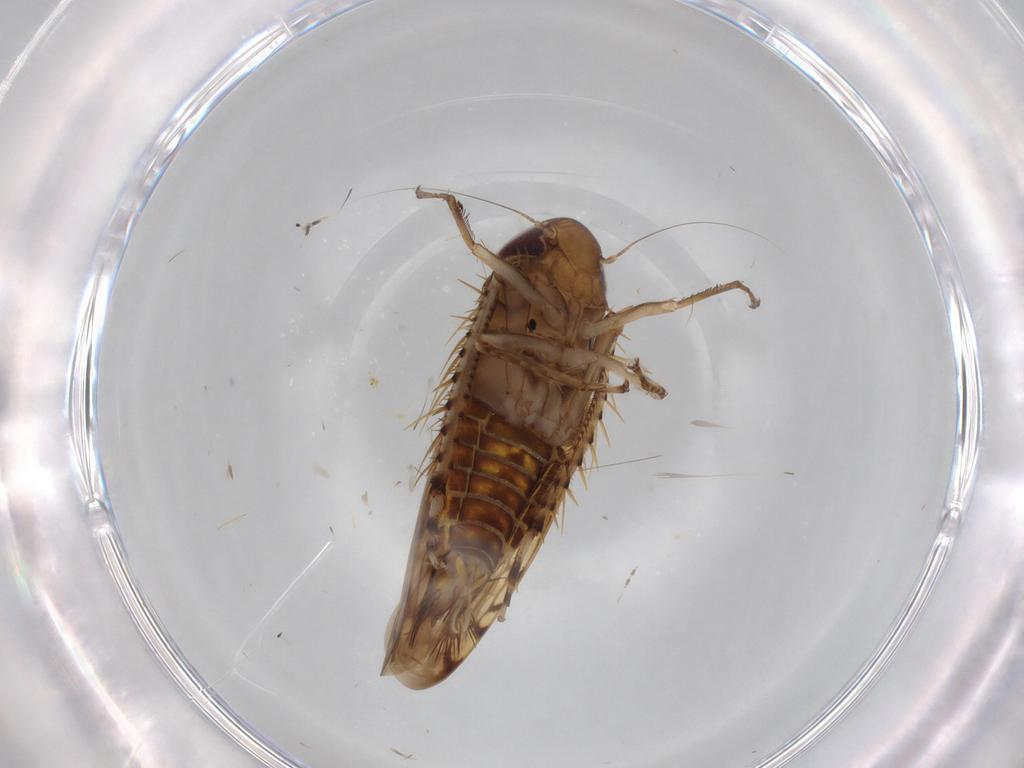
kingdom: Animalia
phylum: Arthropoda
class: Insecta
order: Hemiptera
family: Cicadellidae
